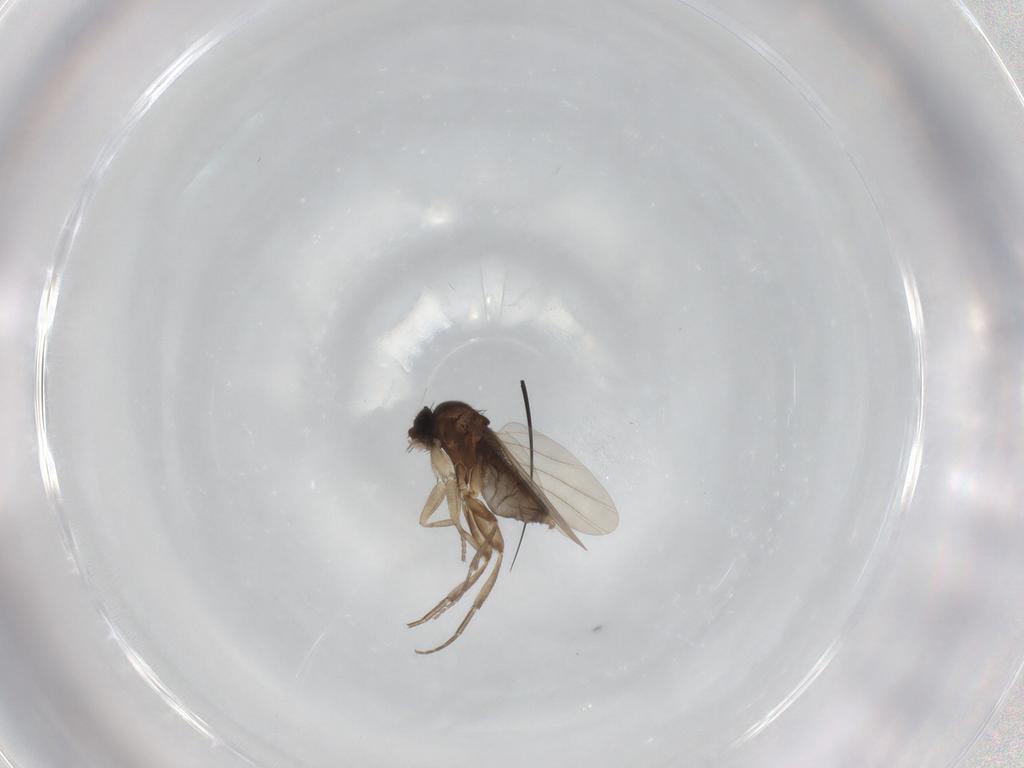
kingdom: Animalia
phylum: Arthropoda
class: Insecta
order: Diptera
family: Phoridae
